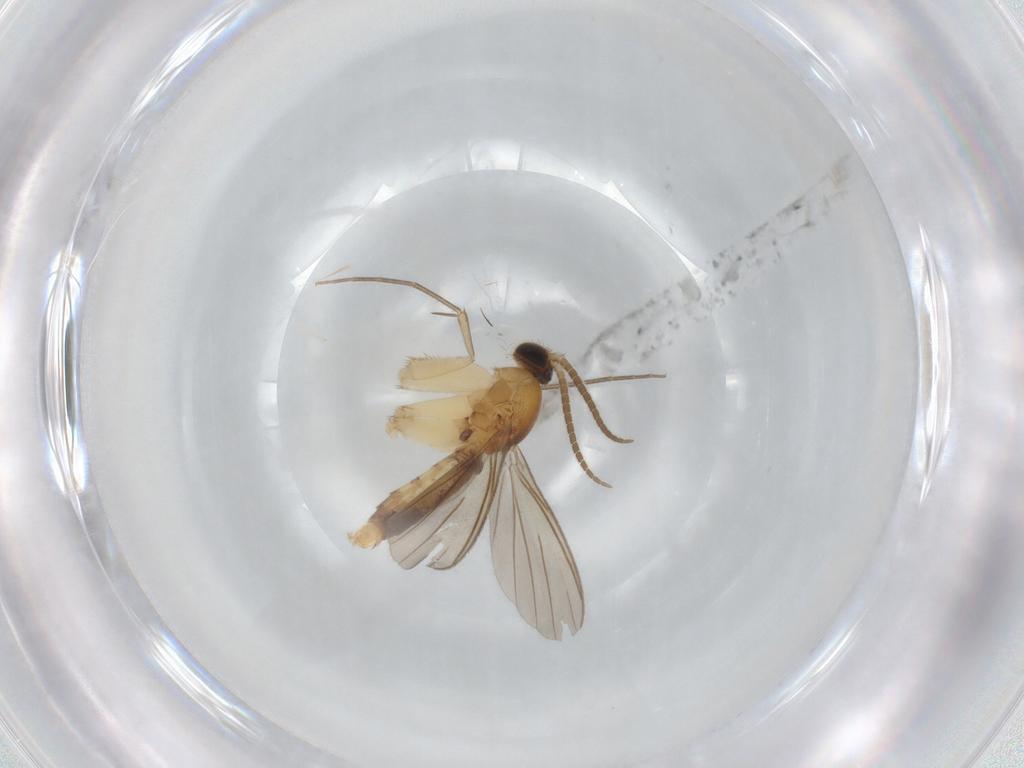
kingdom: Animalia
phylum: Arthropoda
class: Insecta
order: Diptera
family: Mycetophilidae
